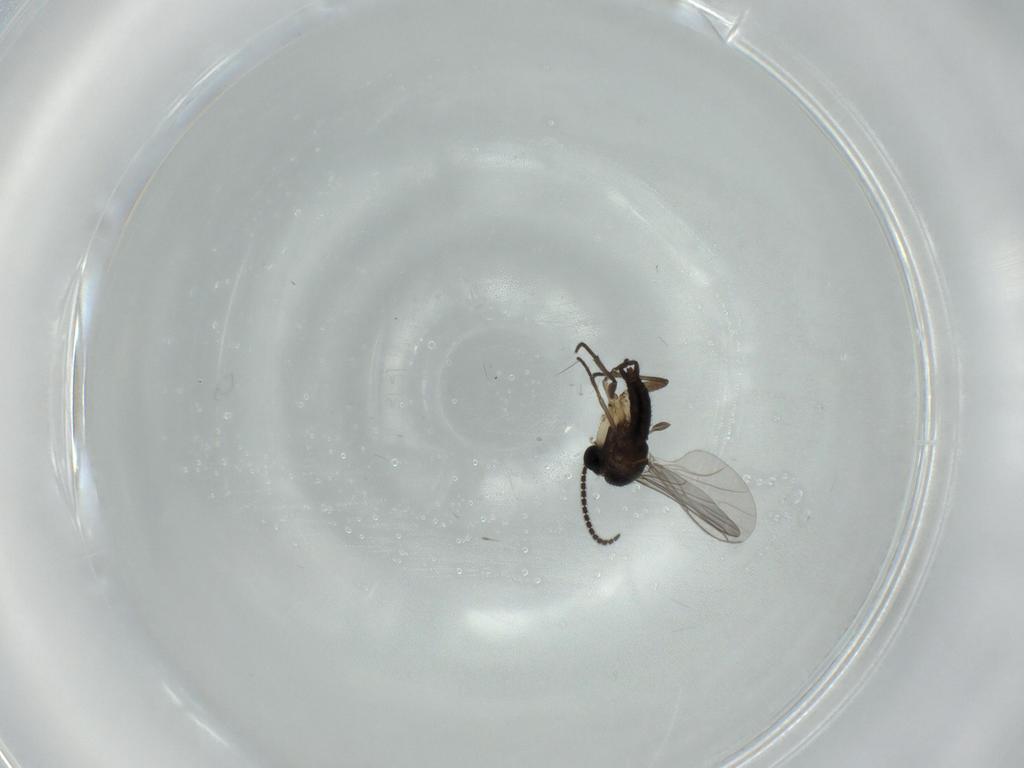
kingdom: Animalia
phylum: Arthropoda
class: Insecta
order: Diptera
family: Sciaridae
